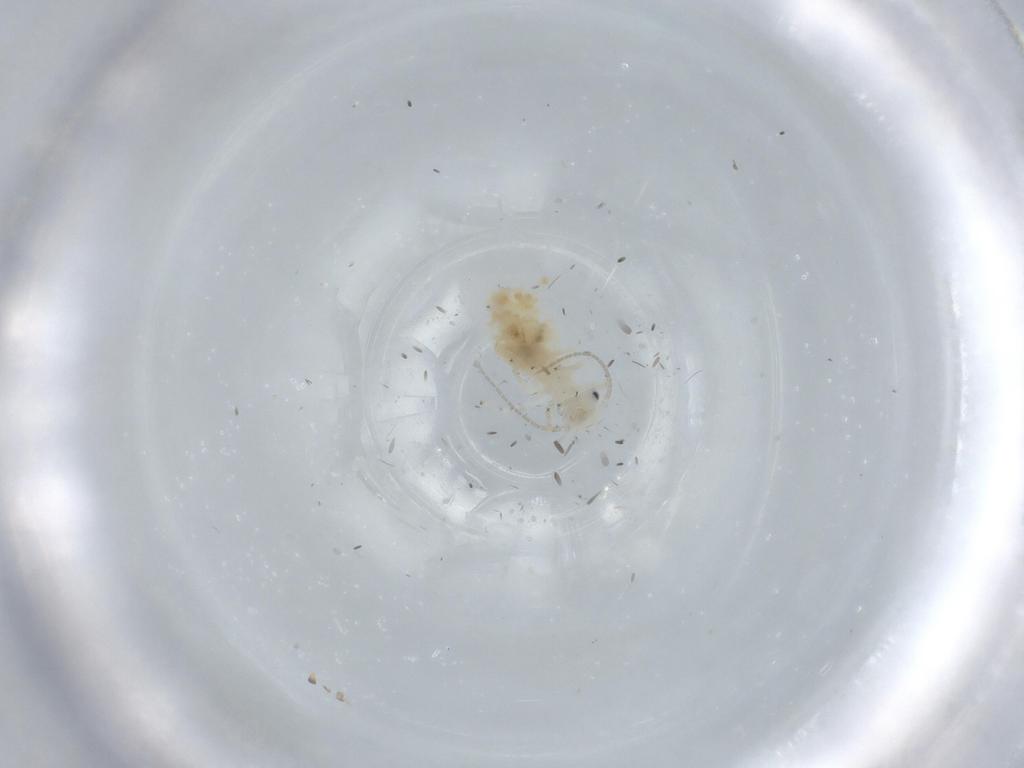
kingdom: Animalia
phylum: Arthropoda
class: Insecta
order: Psocodea
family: Caeciliusidae
